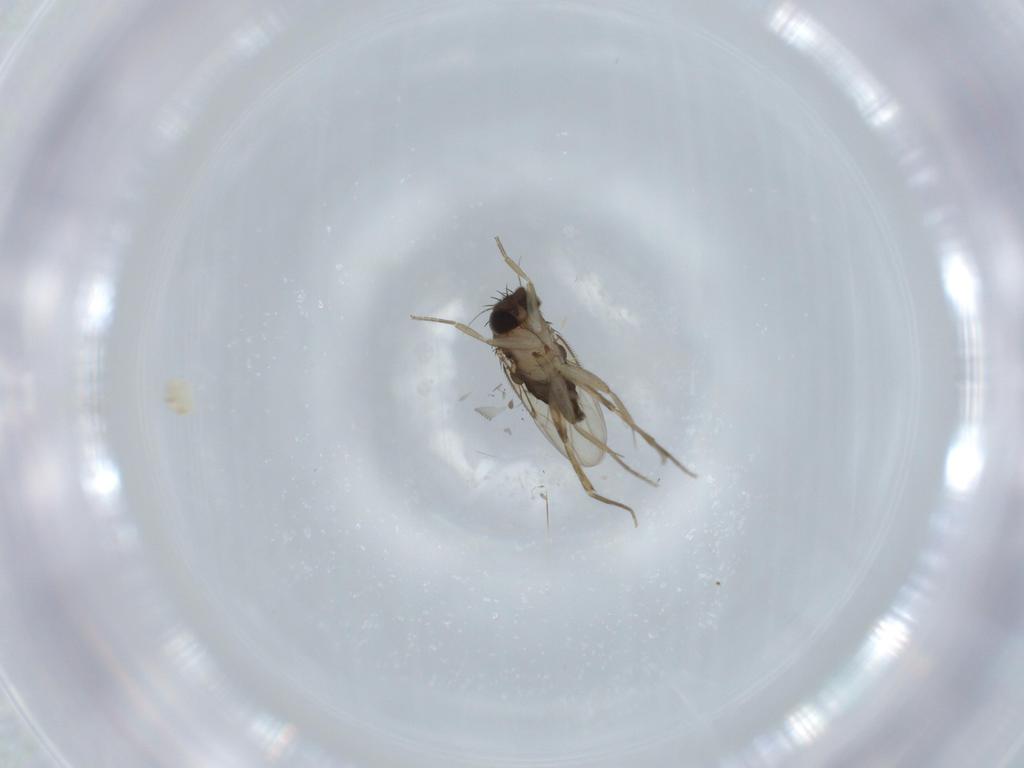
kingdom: Animalia
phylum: Arthropoda
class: Insecta
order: Diptera
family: Phoridae
